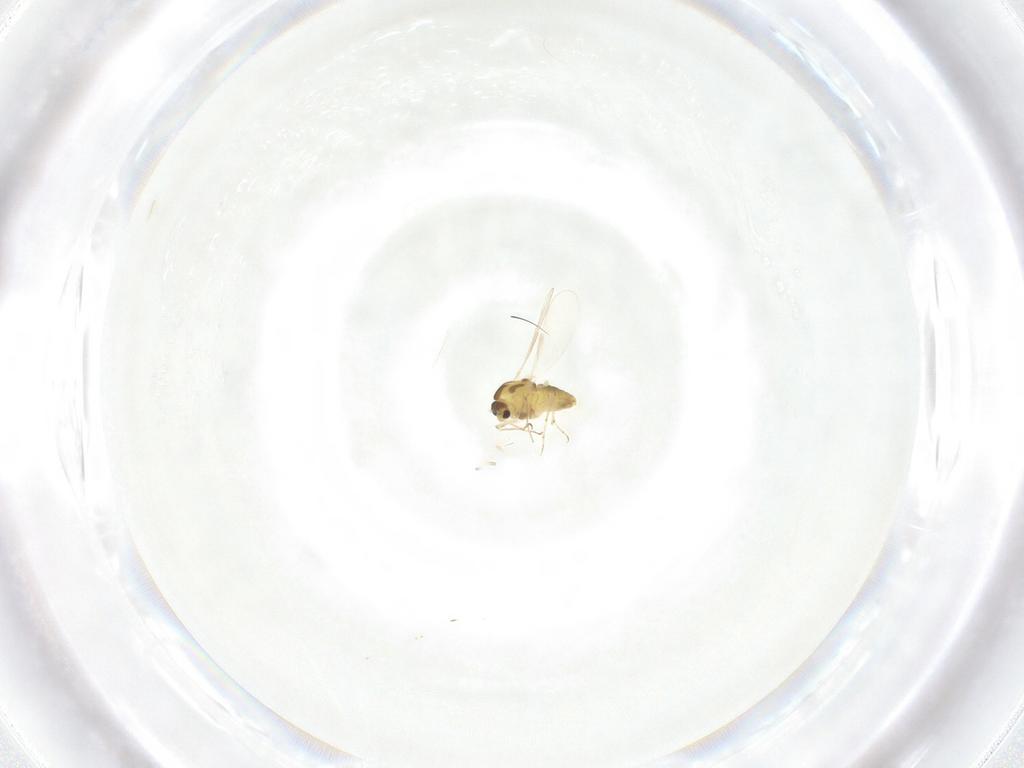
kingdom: Animalia
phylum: Arthropoda
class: Insecta
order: Diptera
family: Chironomidae
